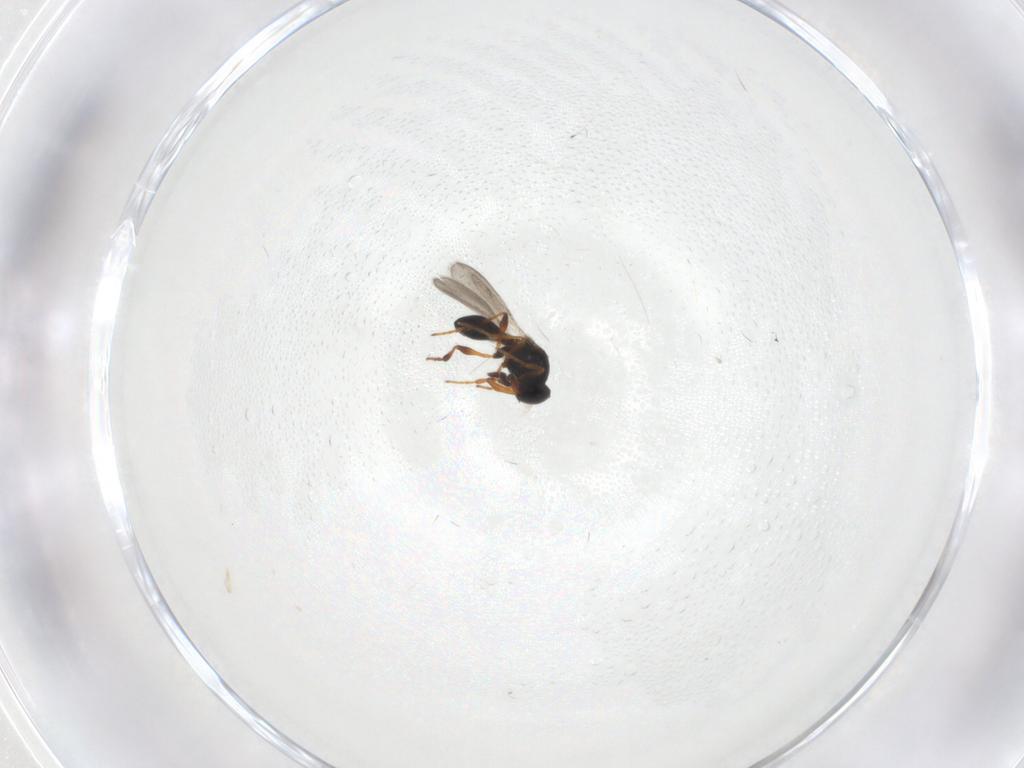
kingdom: Animalia
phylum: Arthropoda
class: Insecta
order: Hymenoptera
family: Platygastridae
